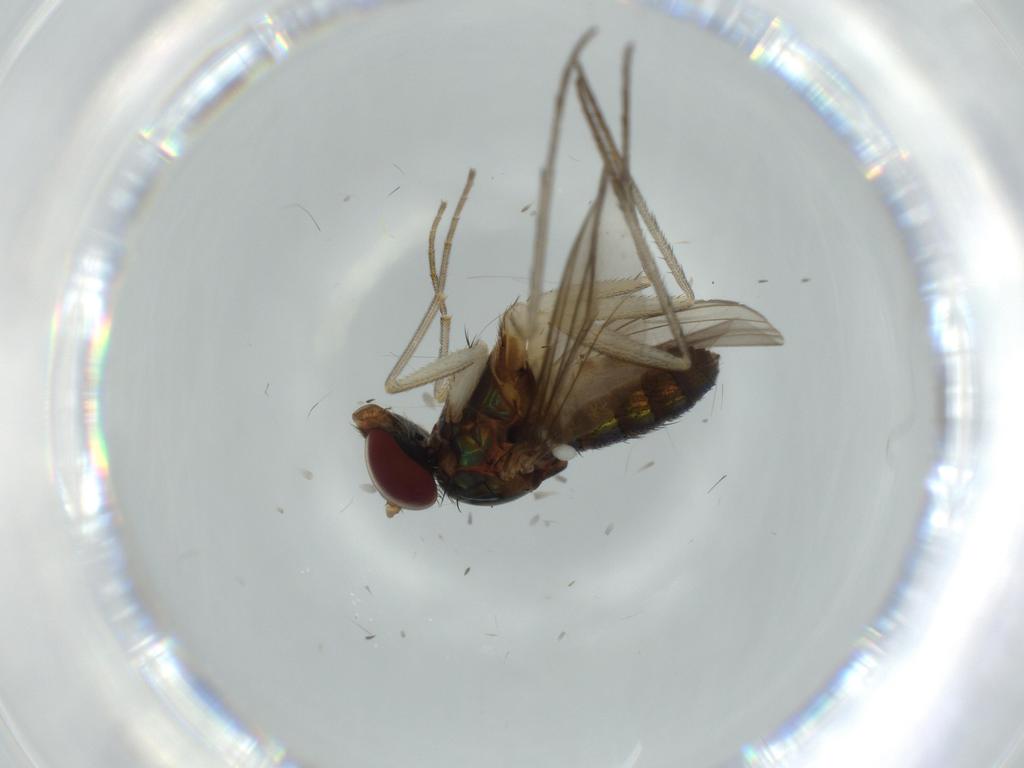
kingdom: Animalia
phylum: Arthropoda
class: Insecta
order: Diptera
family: Dolichopodidae
